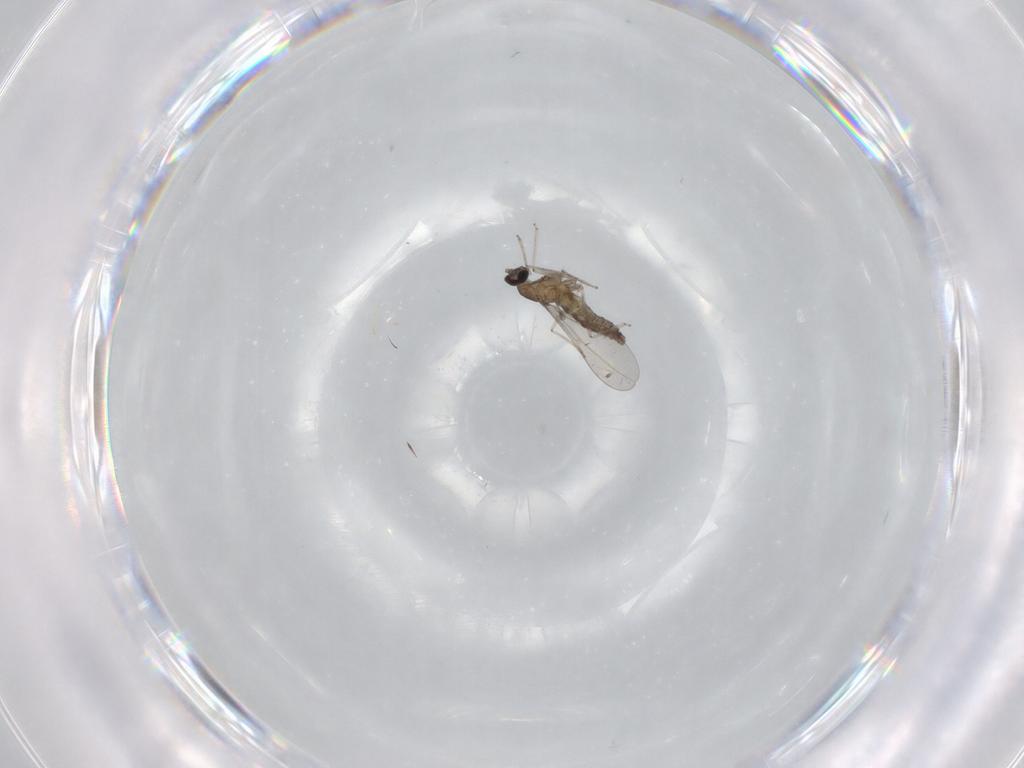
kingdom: Animalia
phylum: Arthropoda
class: Insecta
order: Diptera
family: Cecidomyiidae
